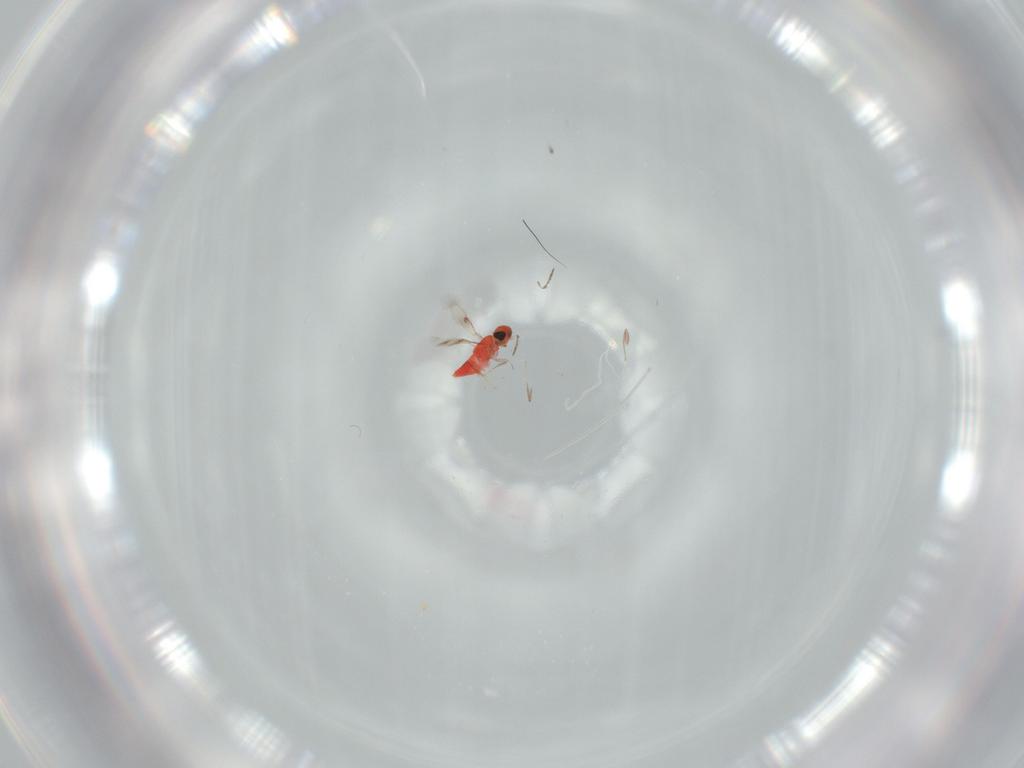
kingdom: Animalia
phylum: Arthropoda
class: Insecta
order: Hymenoptera
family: Trichogrammatidae
